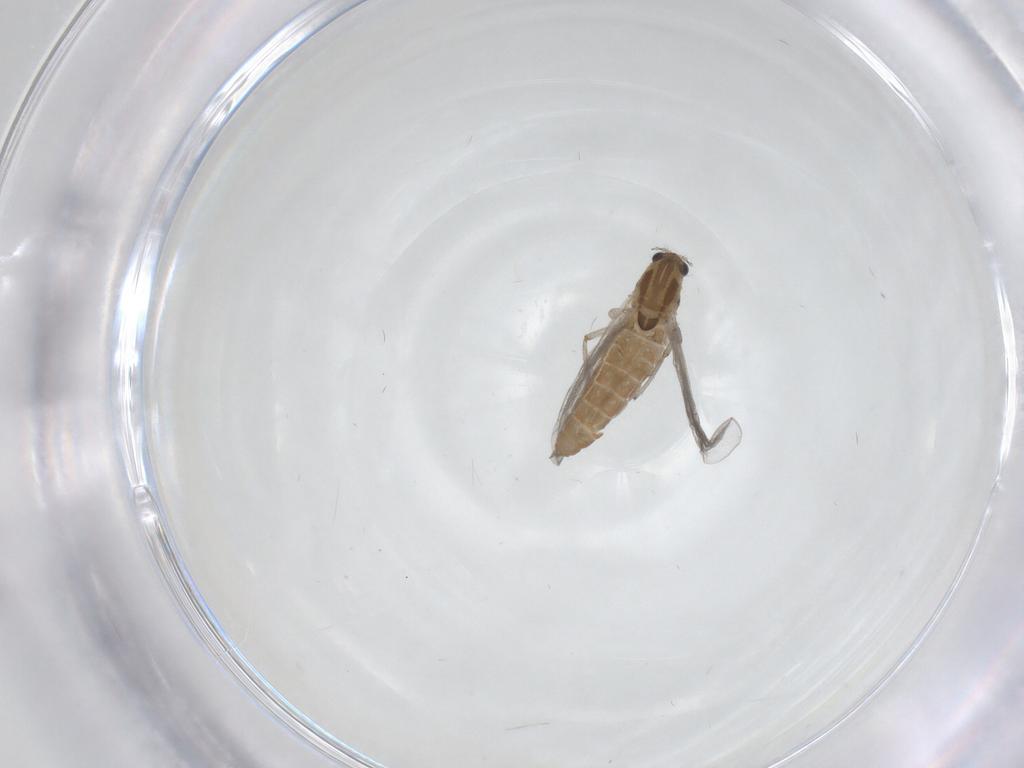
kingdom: Animalia
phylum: Arthropoda
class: Insecta
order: Diptera
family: Chironomidae
